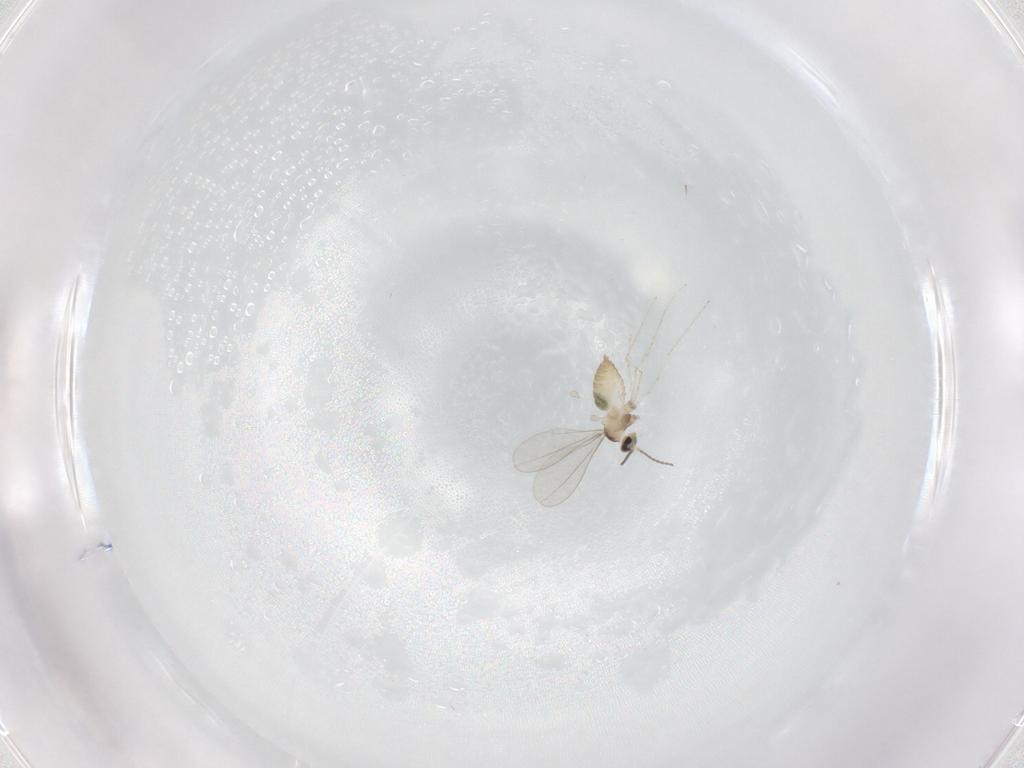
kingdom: Animalia
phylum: Arthropoda
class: Insecta
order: Diptera
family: Cecidomyiidae
